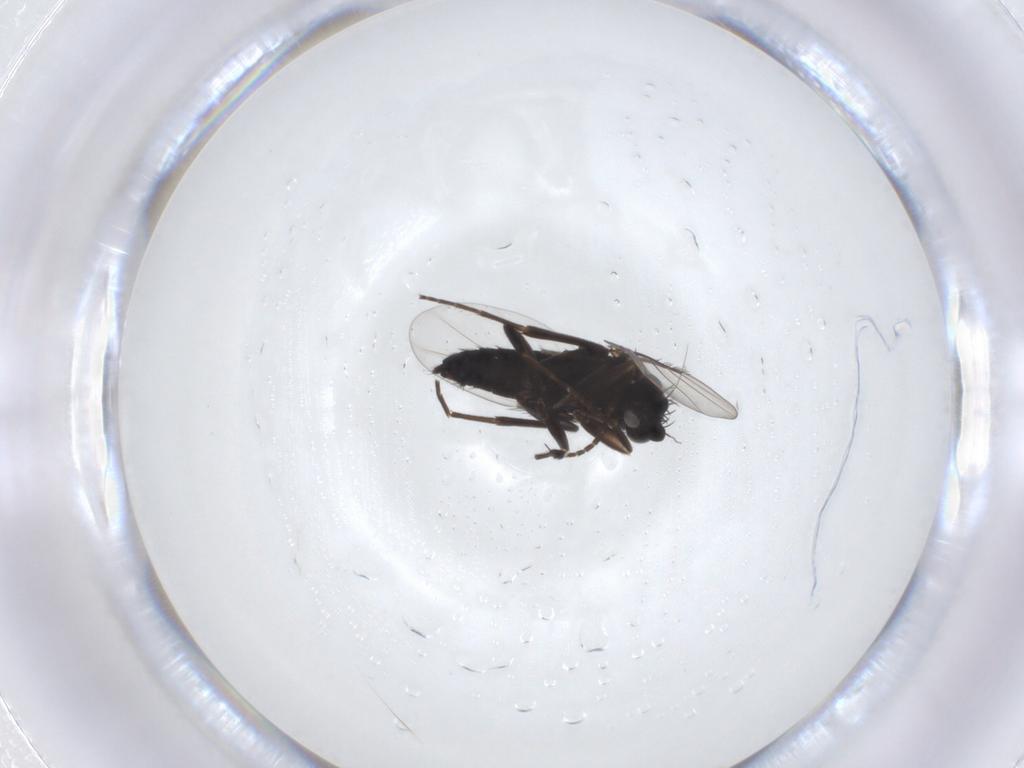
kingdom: Animalia
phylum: Arthropoda
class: Insecta
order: Diptera
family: Phoridae
